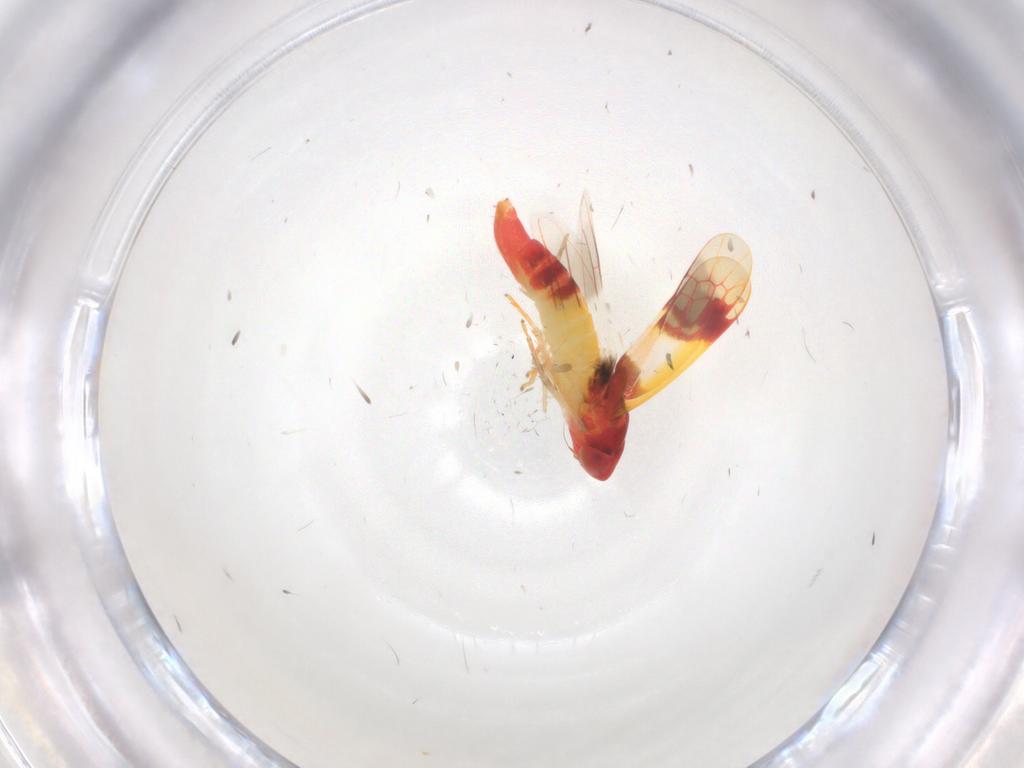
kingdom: Animalia
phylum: Arthropoda
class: Insecta
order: Hemiptera
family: Cicadellidae
